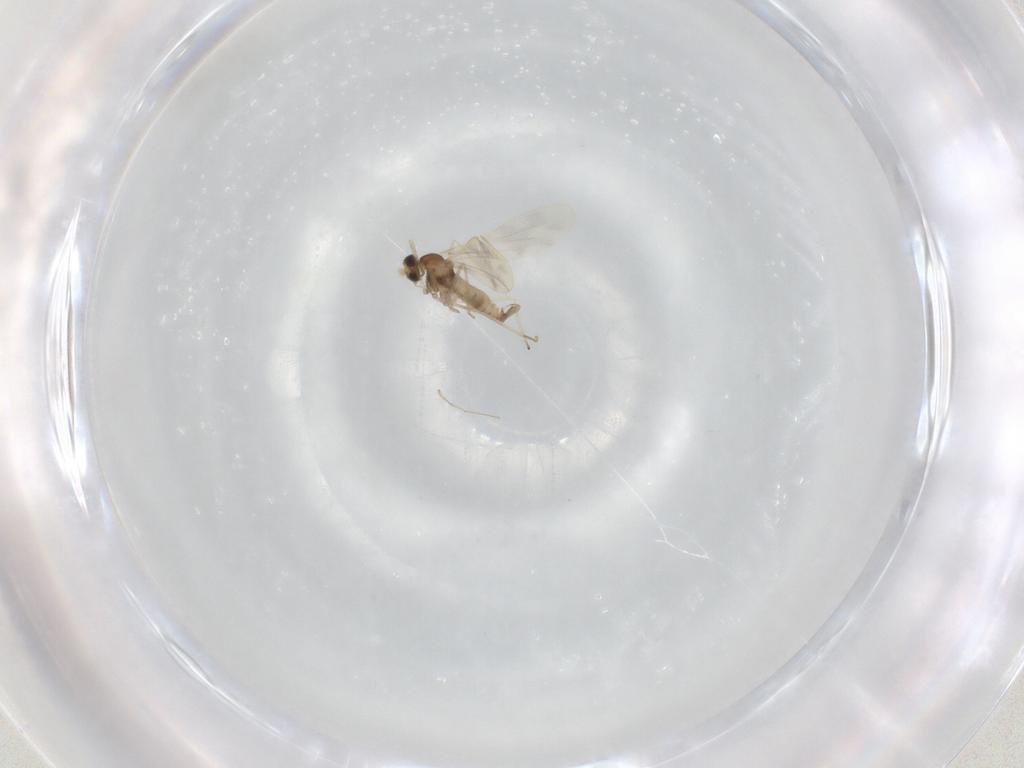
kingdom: Animalia
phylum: Arthropoda
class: Insecta
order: Diptera
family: Cecidomyiidae
